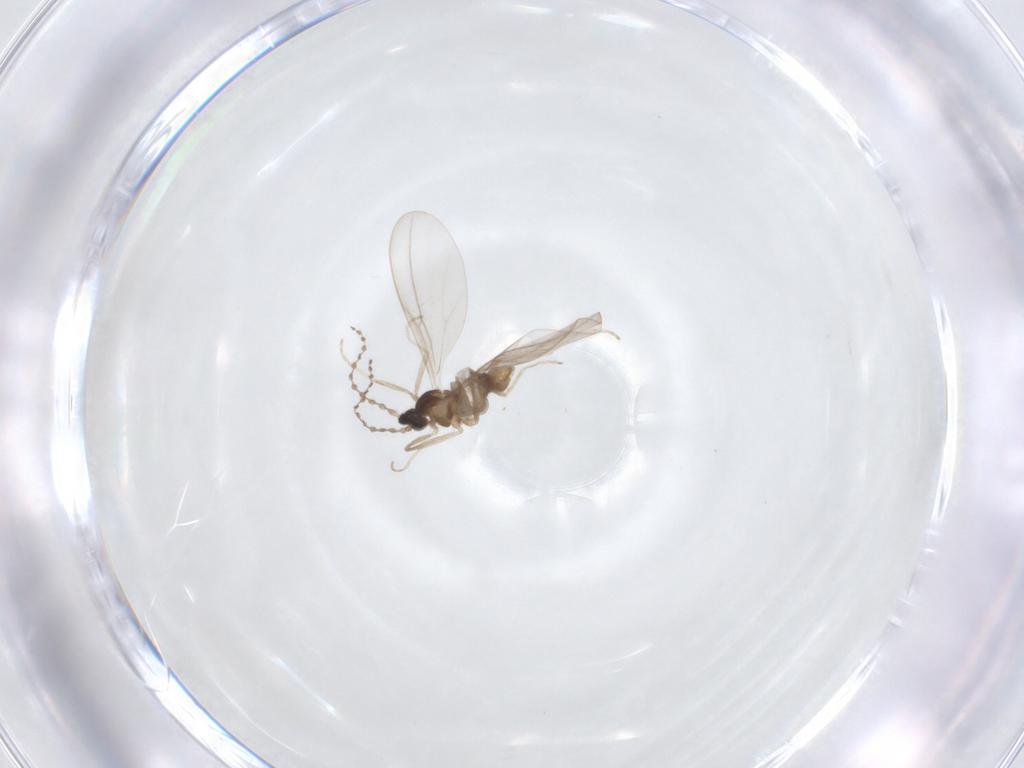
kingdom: Animalia
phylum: Arthropoda
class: Insecta
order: Diptera
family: Cecidomyiidae
